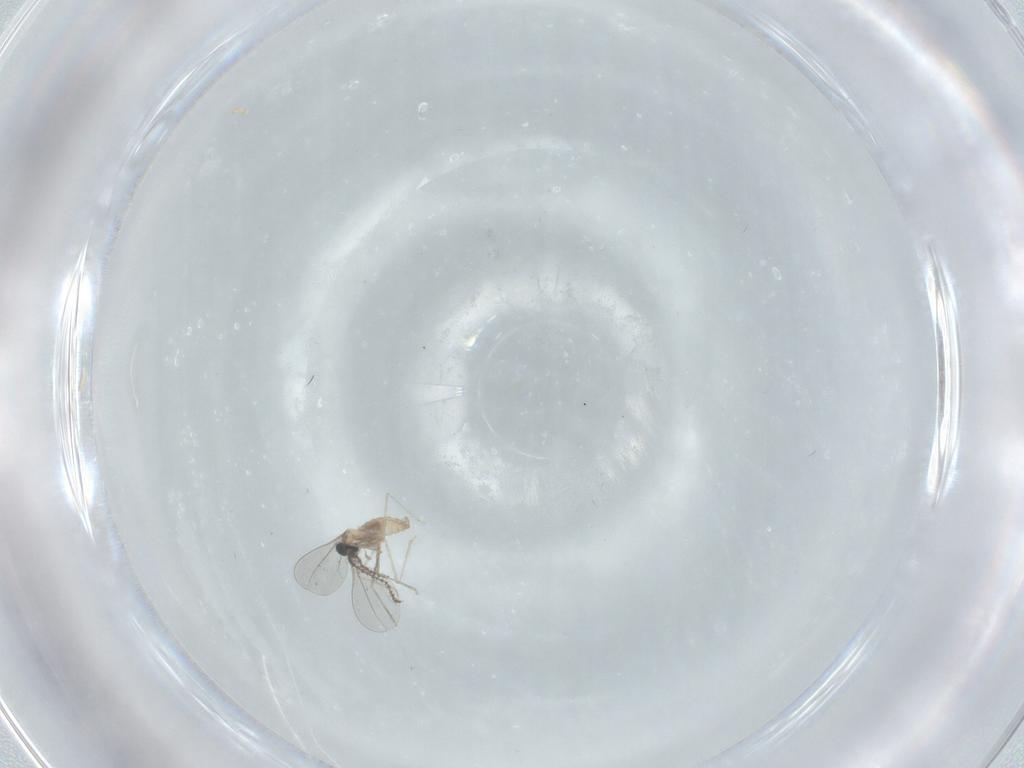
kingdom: Animalia
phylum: Arthropoda
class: Insecta
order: Diptera
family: Cecidomyiidae
